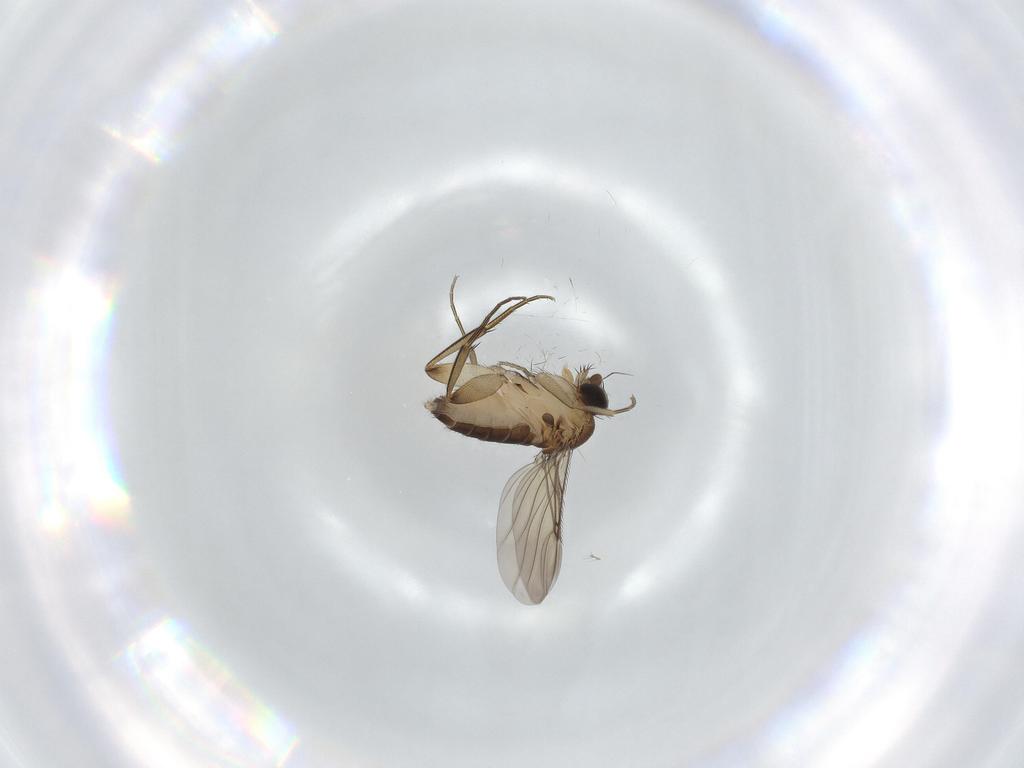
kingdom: Animalia
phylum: Arthropoda
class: Insecta
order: Diptera
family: Phoridae
